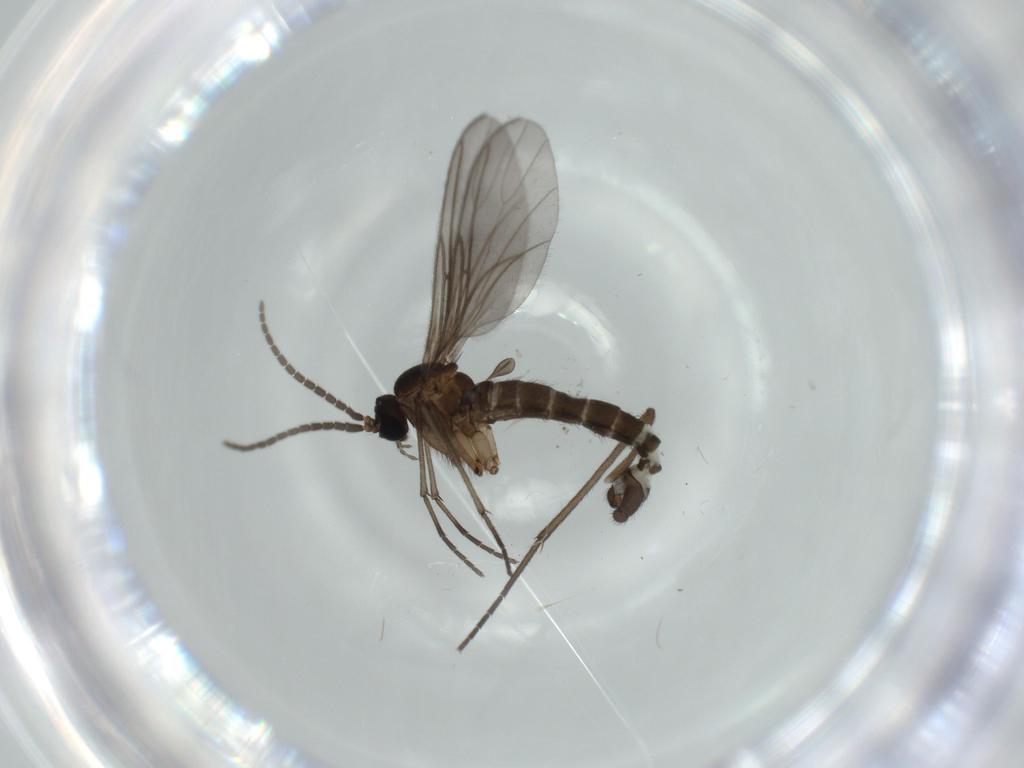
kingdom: Animalia
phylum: Arthropoda
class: Insecta
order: Diptera
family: Sciaridae
